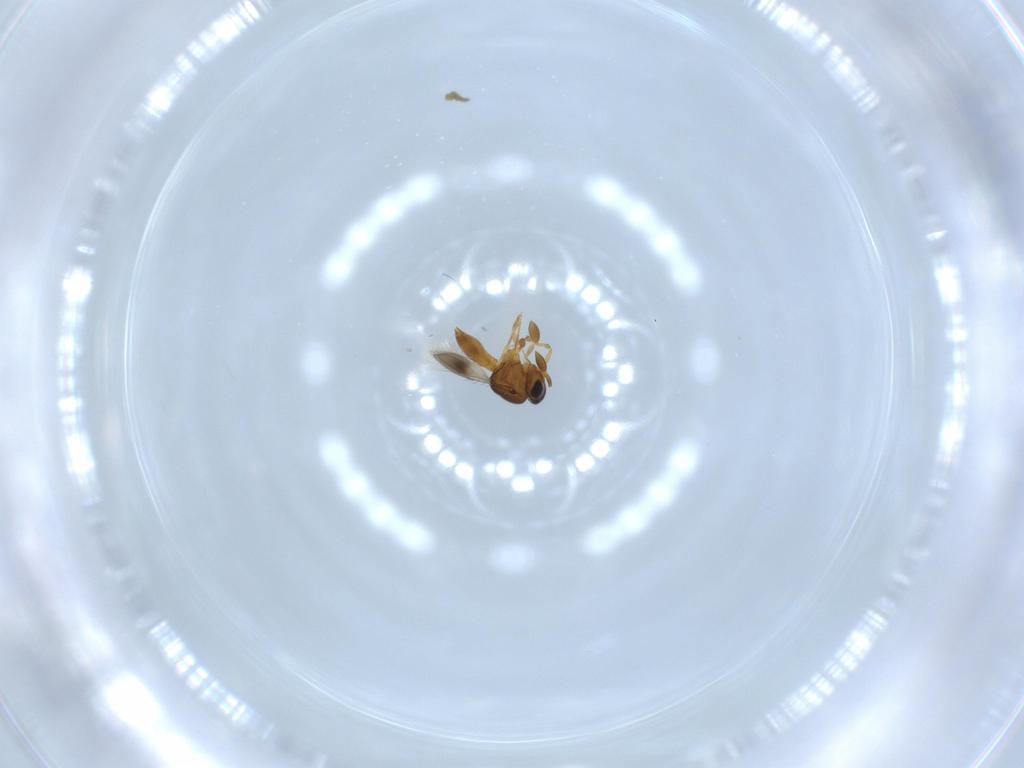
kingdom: Animalia
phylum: Arthropoda
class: Insecta
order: Hymenoptera
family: Scelionidae
